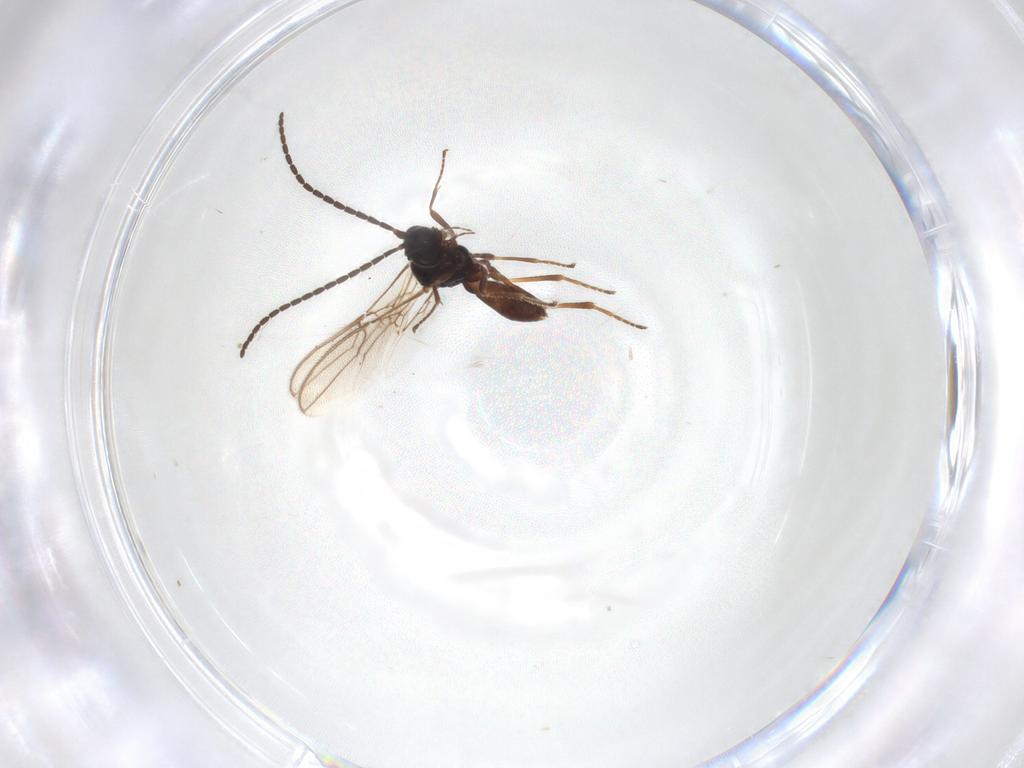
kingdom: Animalia
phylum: Arthropoda
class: Insecta
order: Hymenoptera
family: Braconidae
